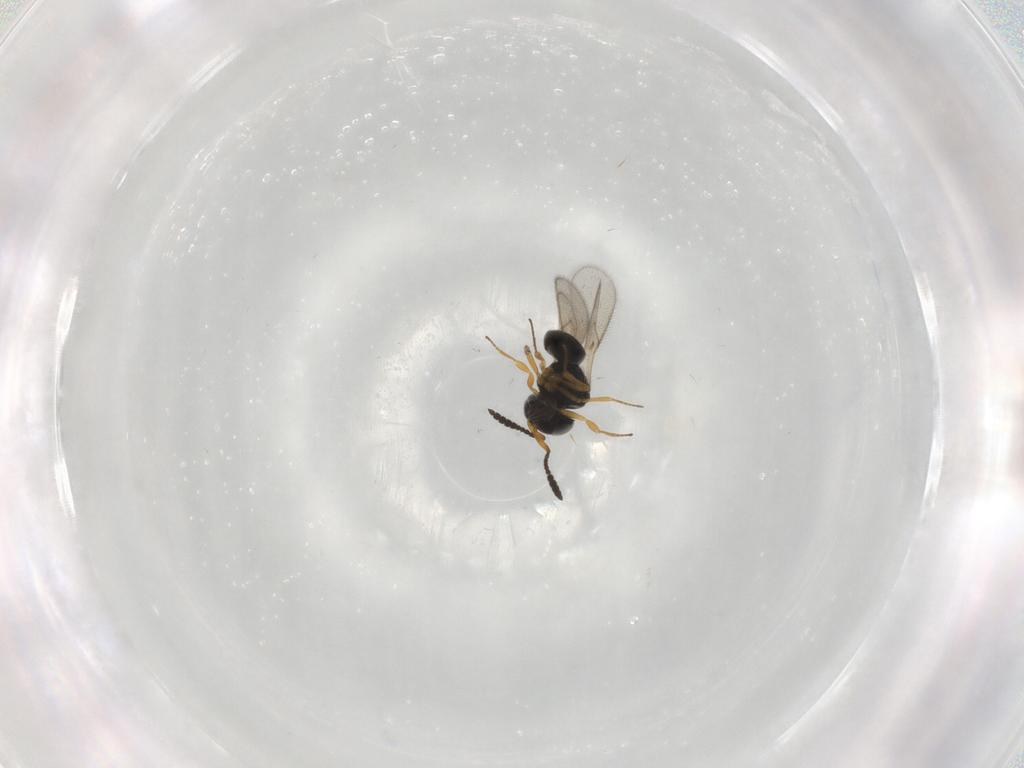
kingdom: Animalia
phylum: Arthropoda
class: Insecta
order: Hymenoptera
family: Scelionidae
